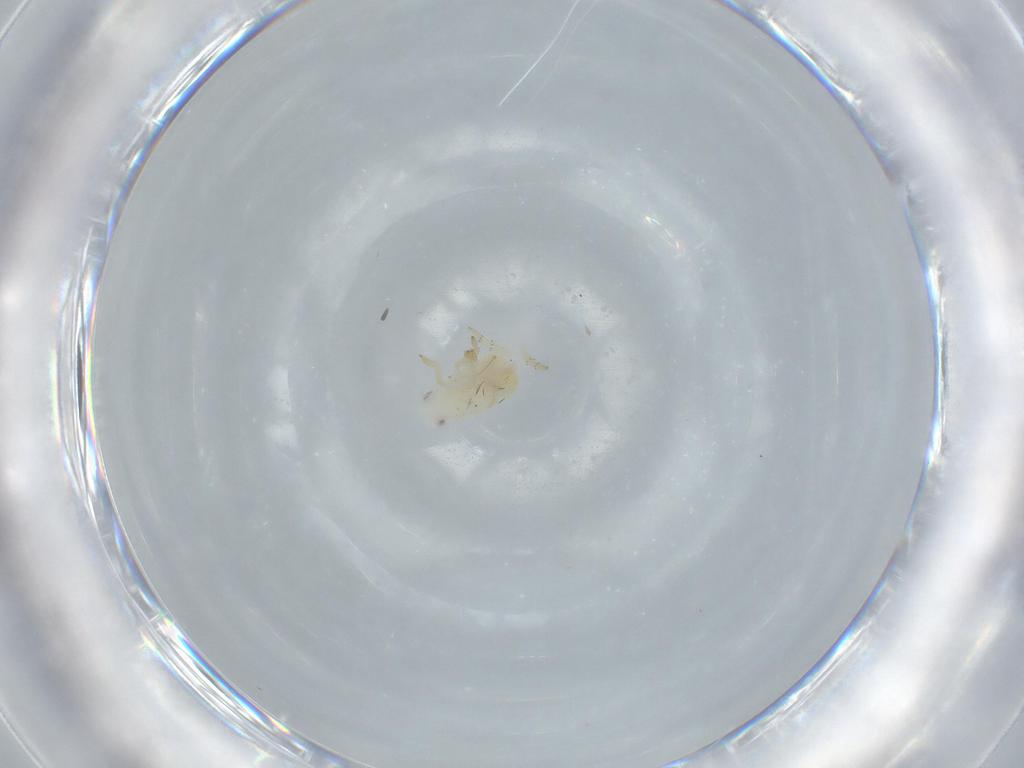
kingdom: Animalia
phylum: Arthropoda
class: Insecta
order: Hemiptera
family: Flatidae
